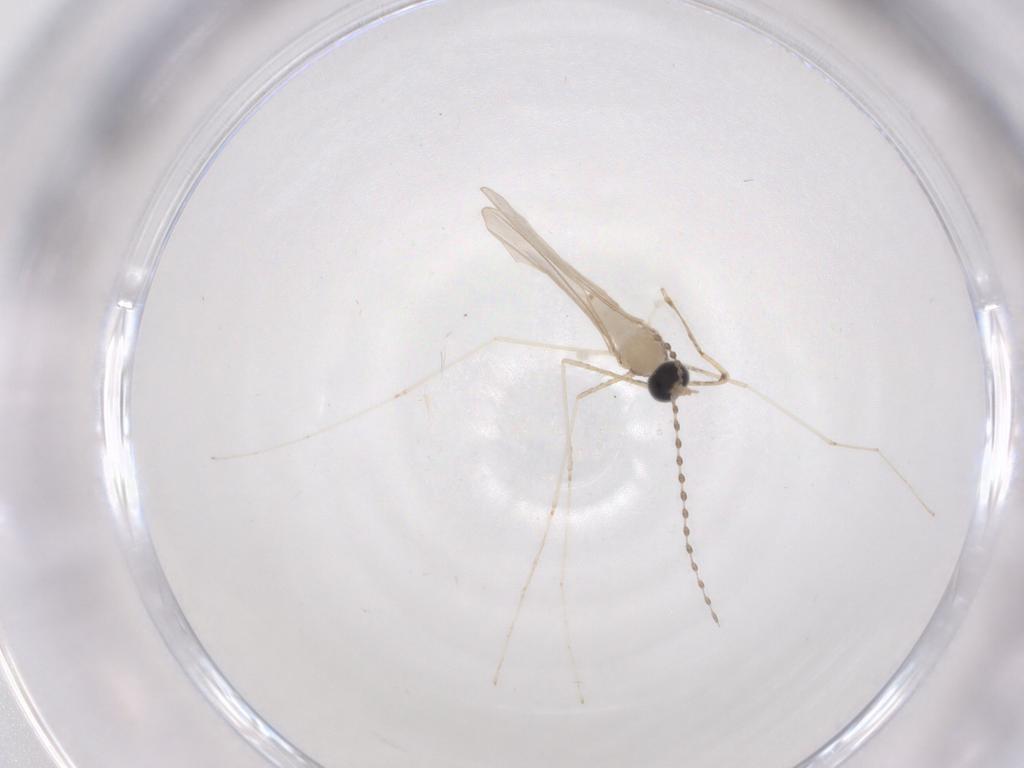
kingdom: Animalia
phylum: Arthropoda
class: Insecta
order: Diptera
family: Cecidomyiidae
